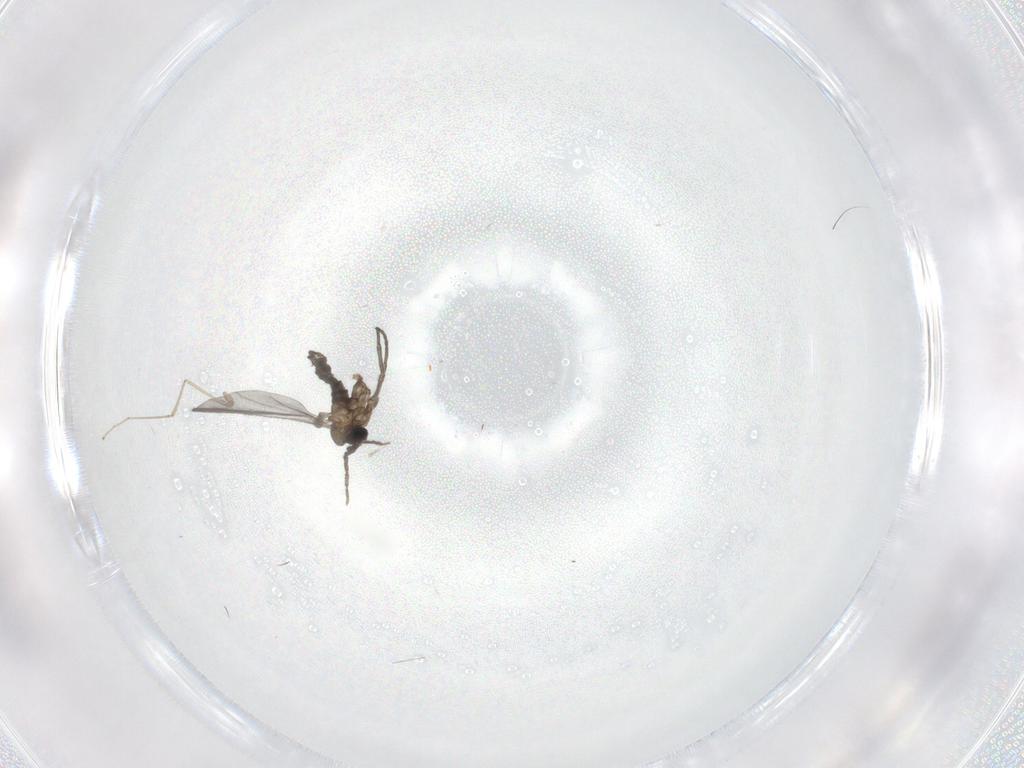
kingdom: Animalia
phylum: Arthropoda
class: Insecta
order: Diptera
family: Sciaridae
